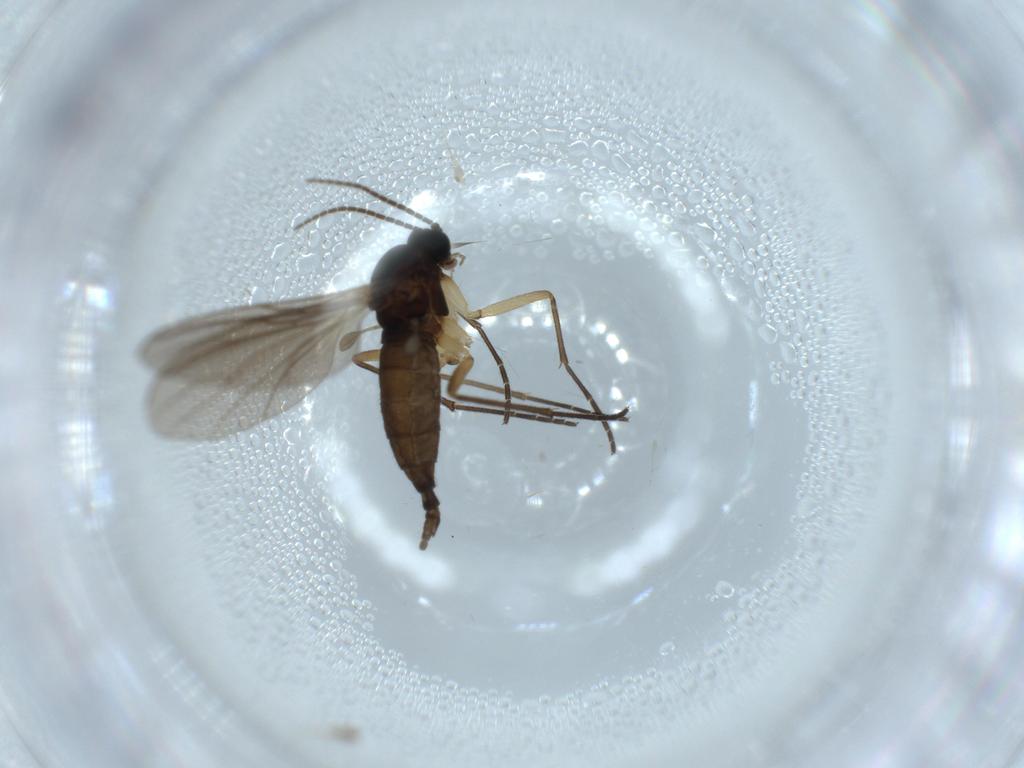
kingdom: Animalia
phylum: Arthropoda
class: Insecta
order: Diptera
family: Sciaridae
